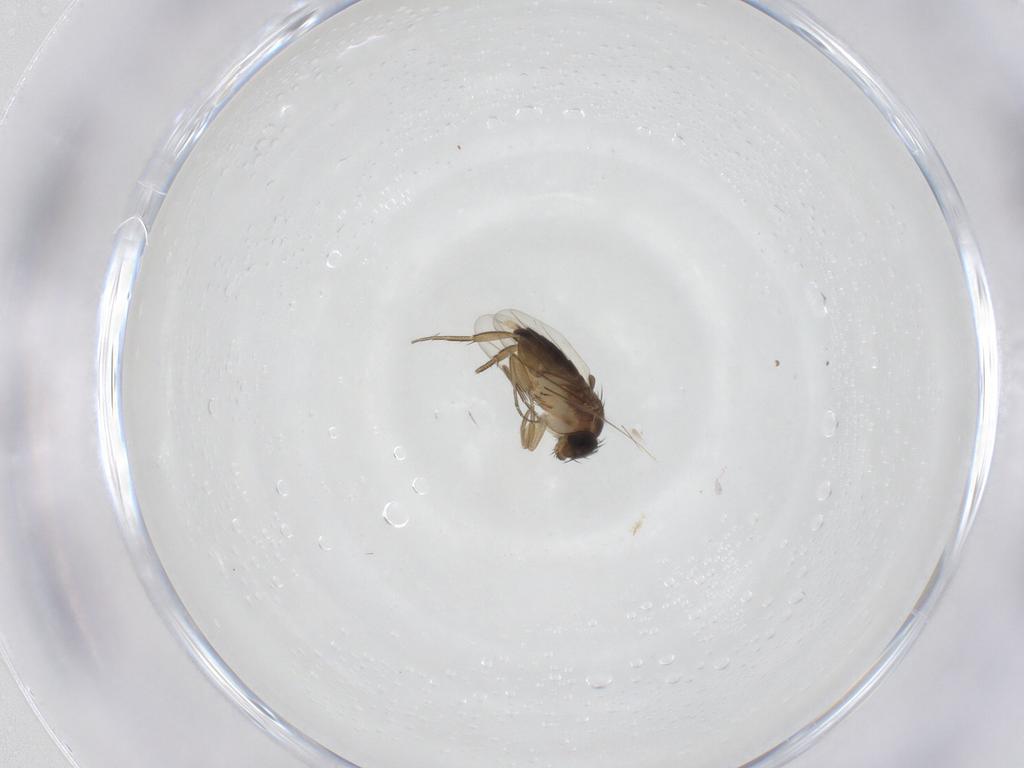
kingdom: Animalia
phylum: Arthropoda
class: Insecta
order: Diptera
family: Phoridae
